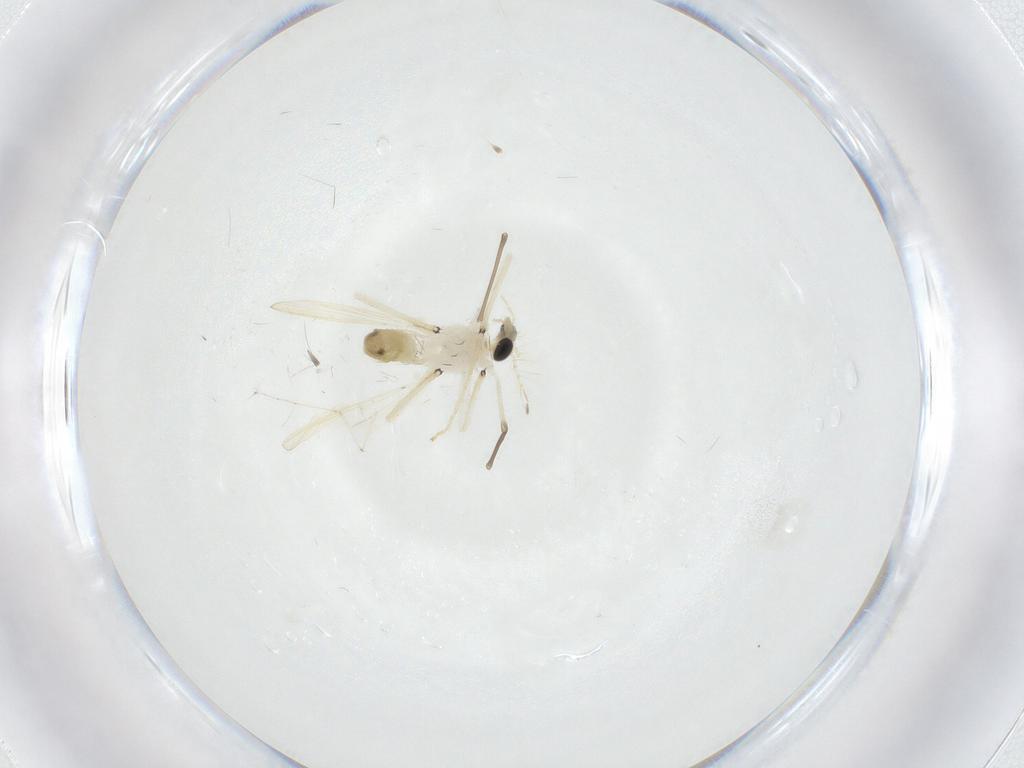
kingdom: Animalia
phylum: Arthropoda
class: Insecta
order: Diptera
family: Chironomidae
